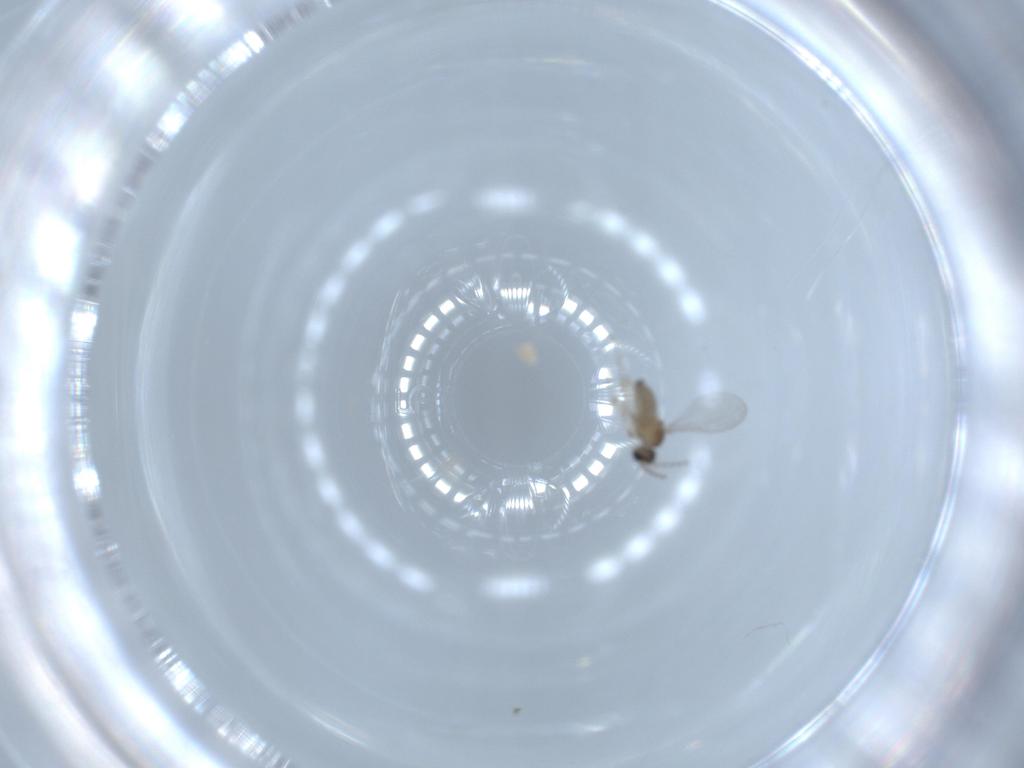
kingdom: Animalia
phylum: Arthropoda
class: Insecta
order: Diptera
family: Cecidomyiidae
